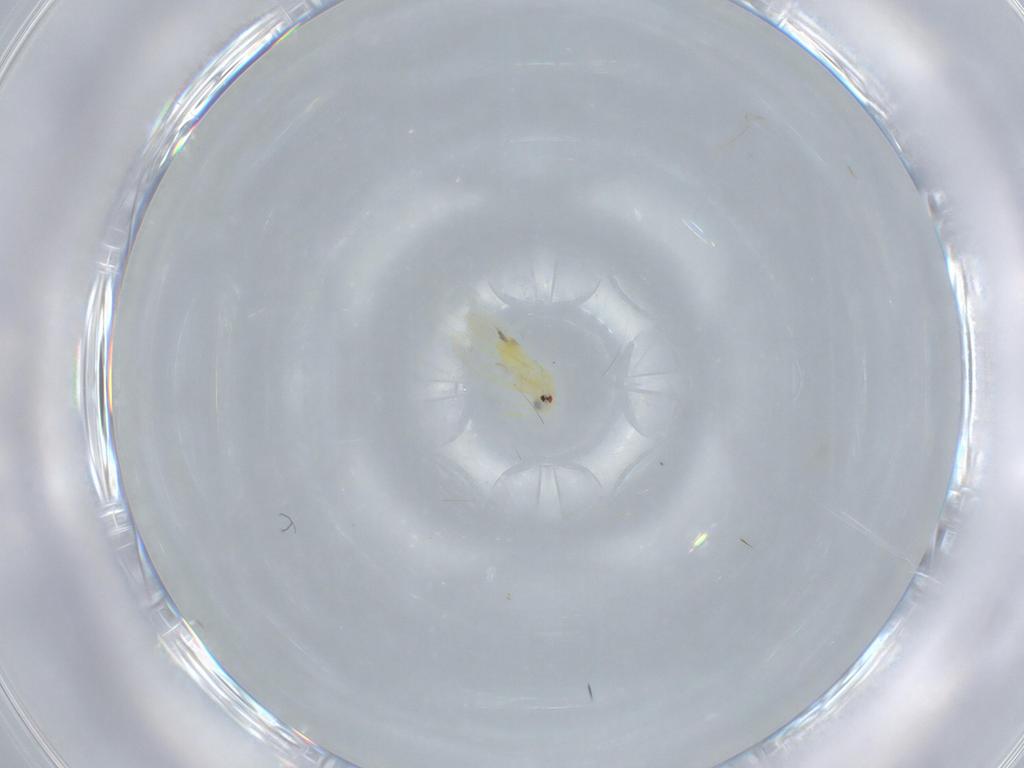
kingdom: Animalia
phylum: Arthropoda
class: Insecta
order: Hemiptera
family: Aleyrodidae
